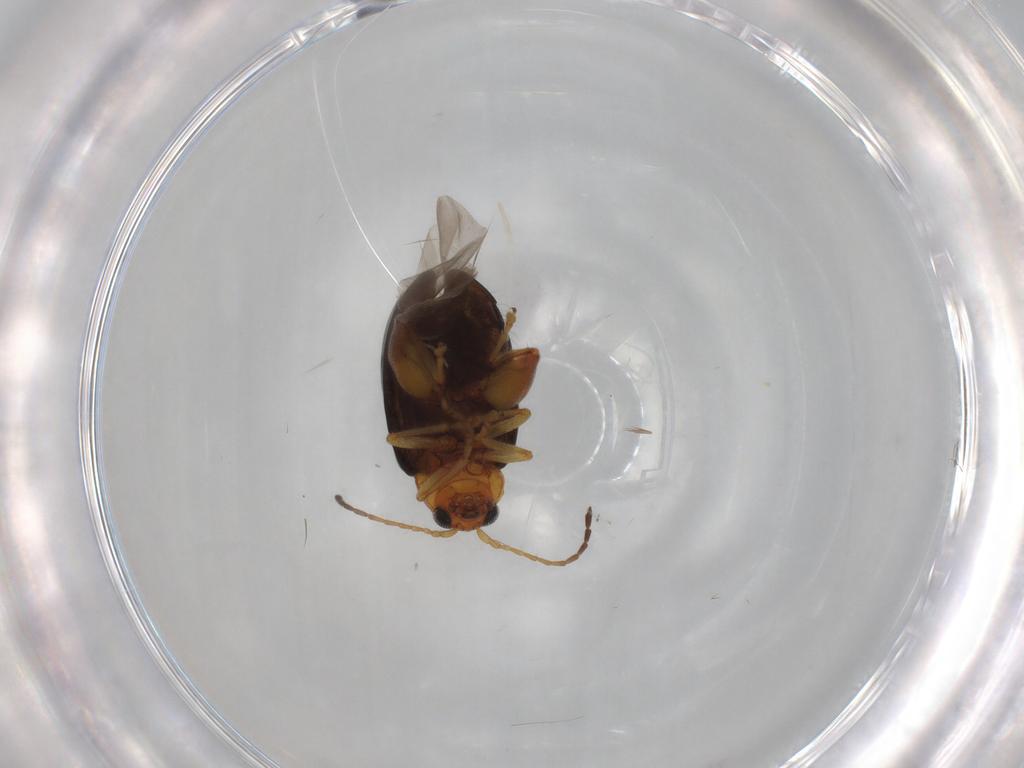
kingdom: Animalia
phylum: Arthropoda
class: Insecta
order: Coleoptera
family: Chrysomelidae
